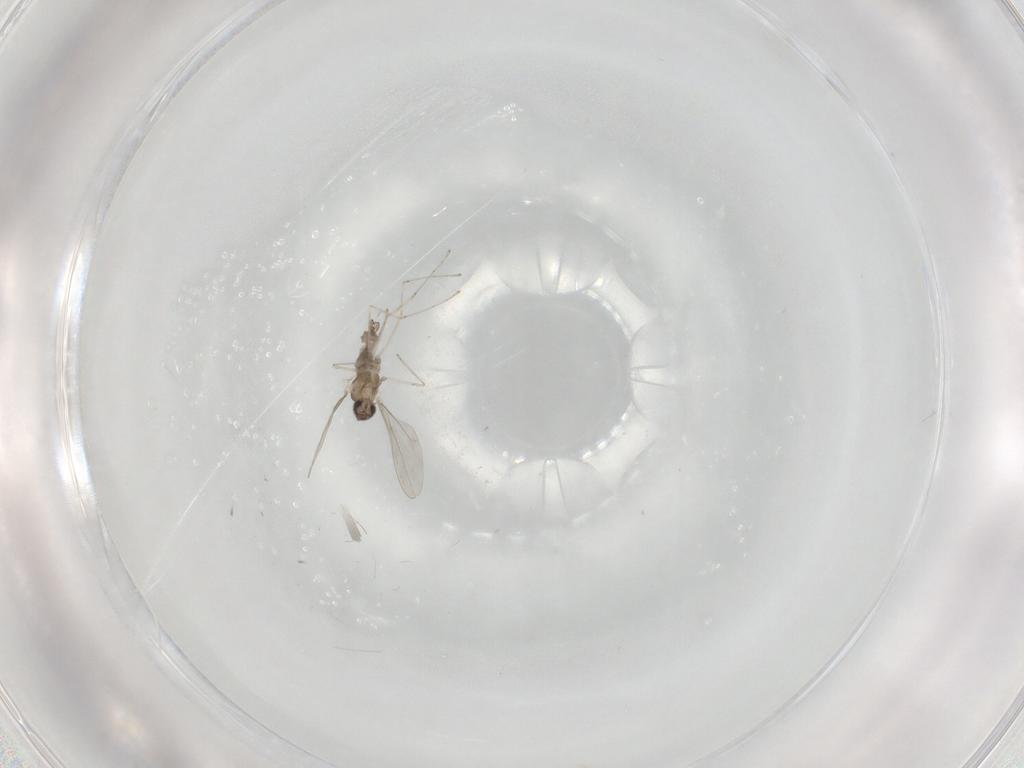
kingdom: Animalia
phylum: Arthropoda
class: Insecta
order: Diptera
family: Cecidomyiidae
